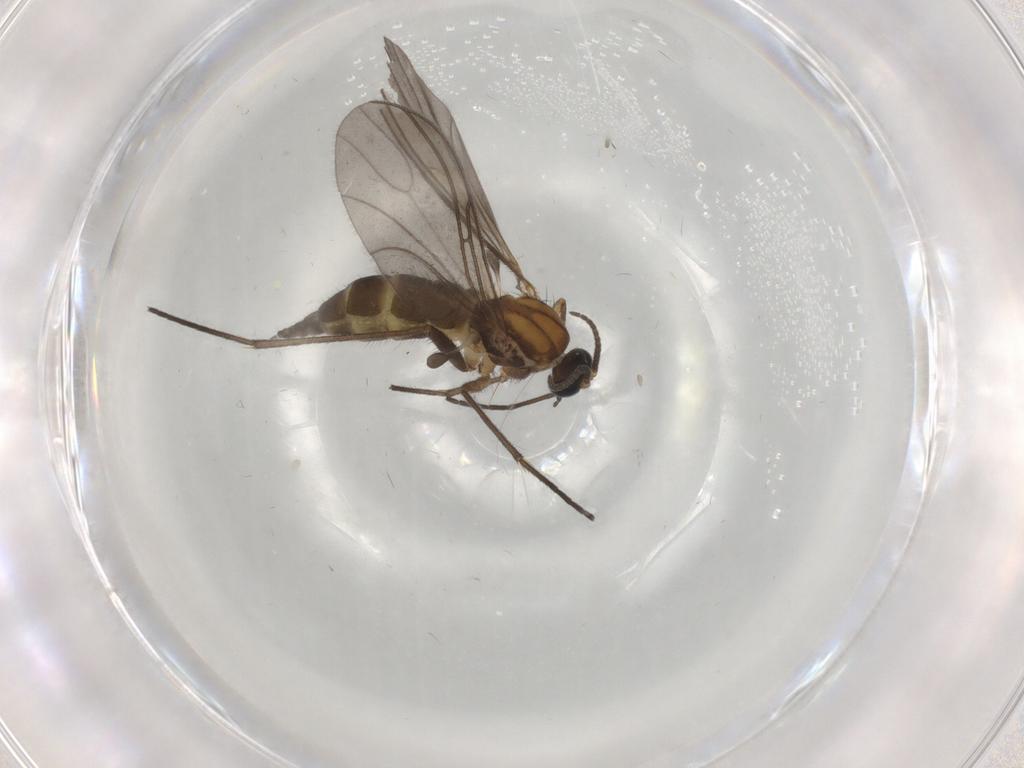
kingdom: Animalia
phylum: Arthropoda
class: Insecta
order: Diptera
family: Sciaridae
